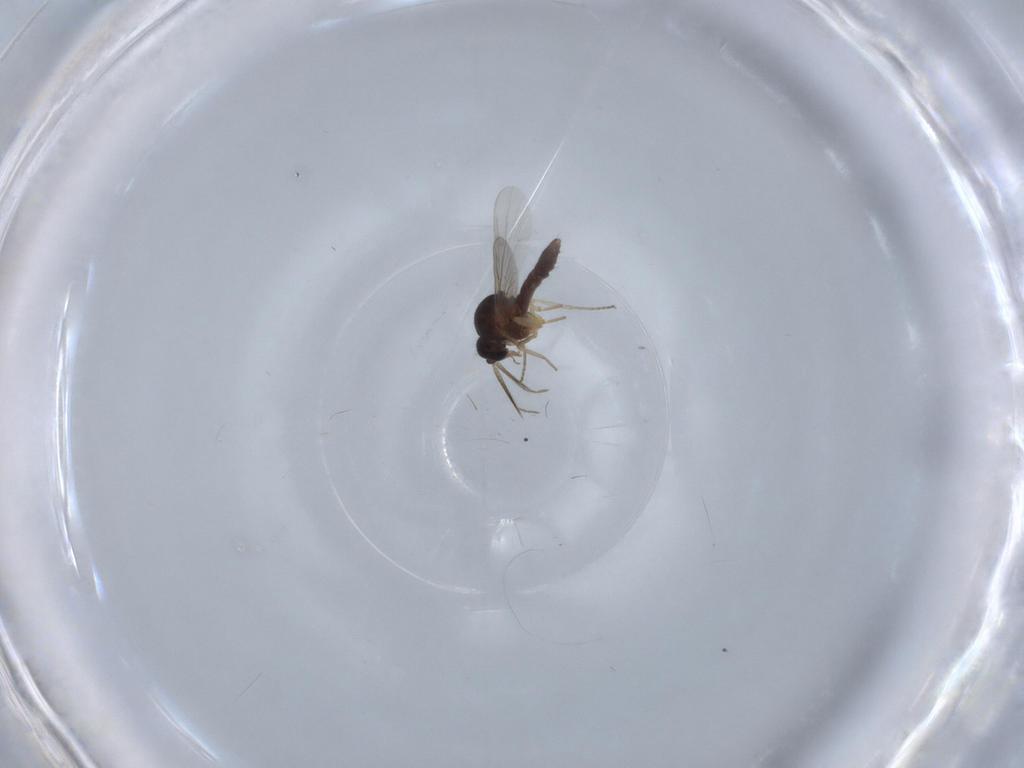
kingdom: Animalia
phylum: Arthropoda
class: Insecta
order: Diptera
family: Ceratopogonidae
